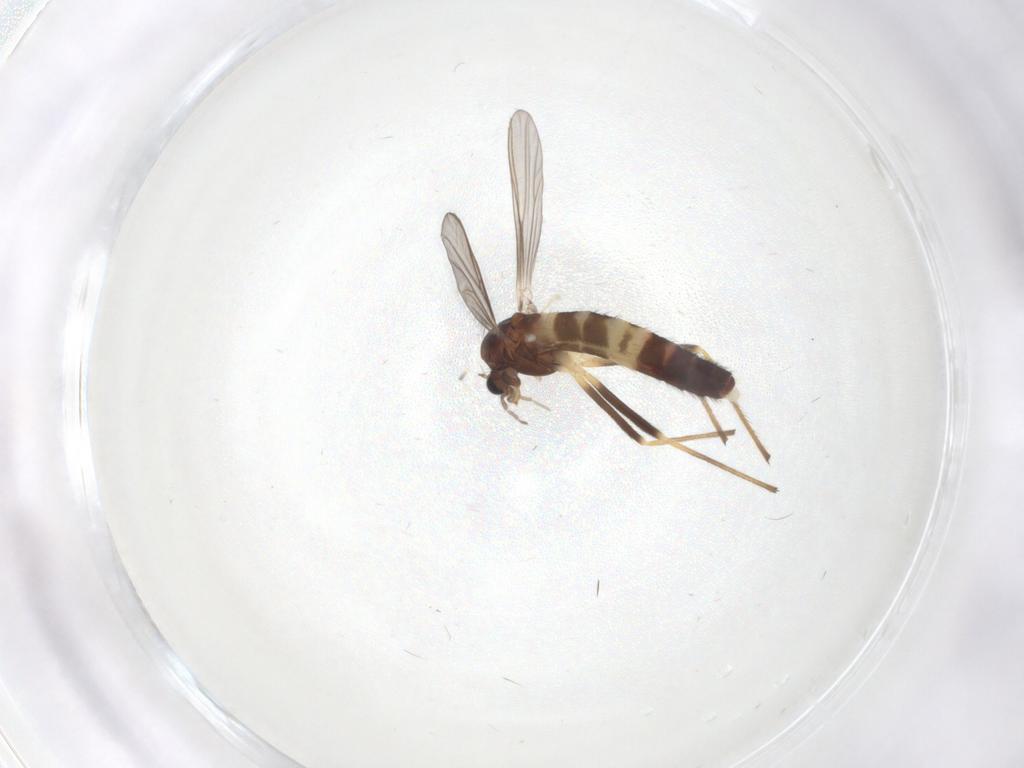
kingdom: Animalia
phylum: Arthropoda
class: Insecta
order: Diptera
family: Chironomidae
